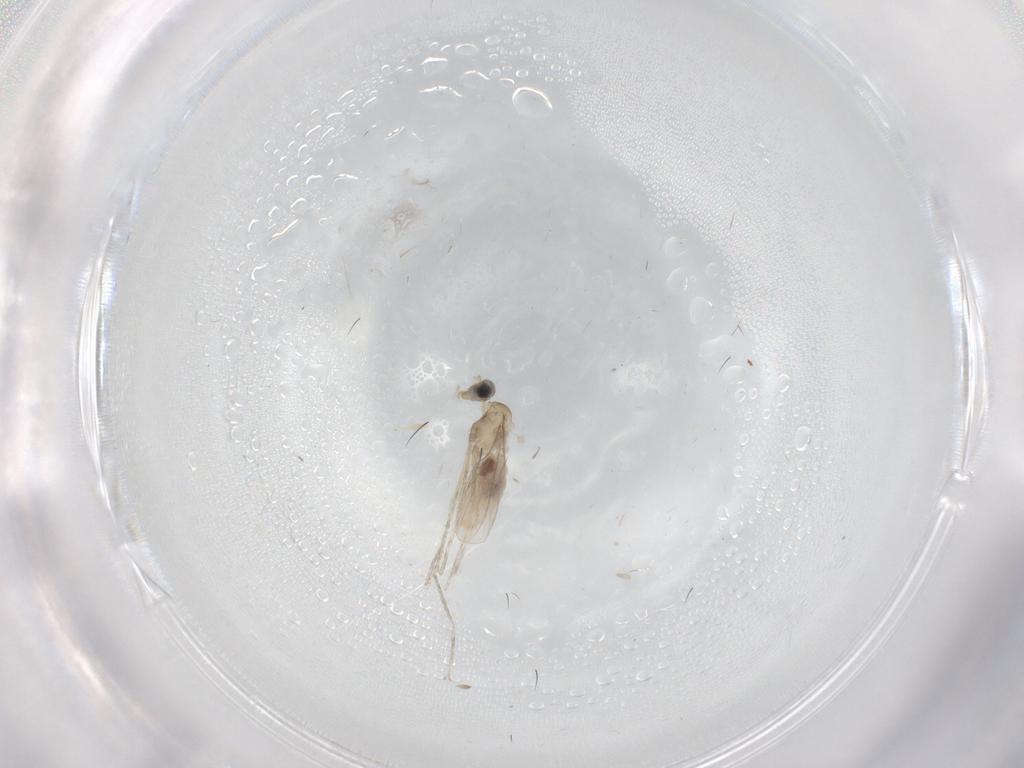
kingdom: Animalia
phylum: Arthropoda
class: Insecta
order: Diptera
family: Cecidomyiidae
